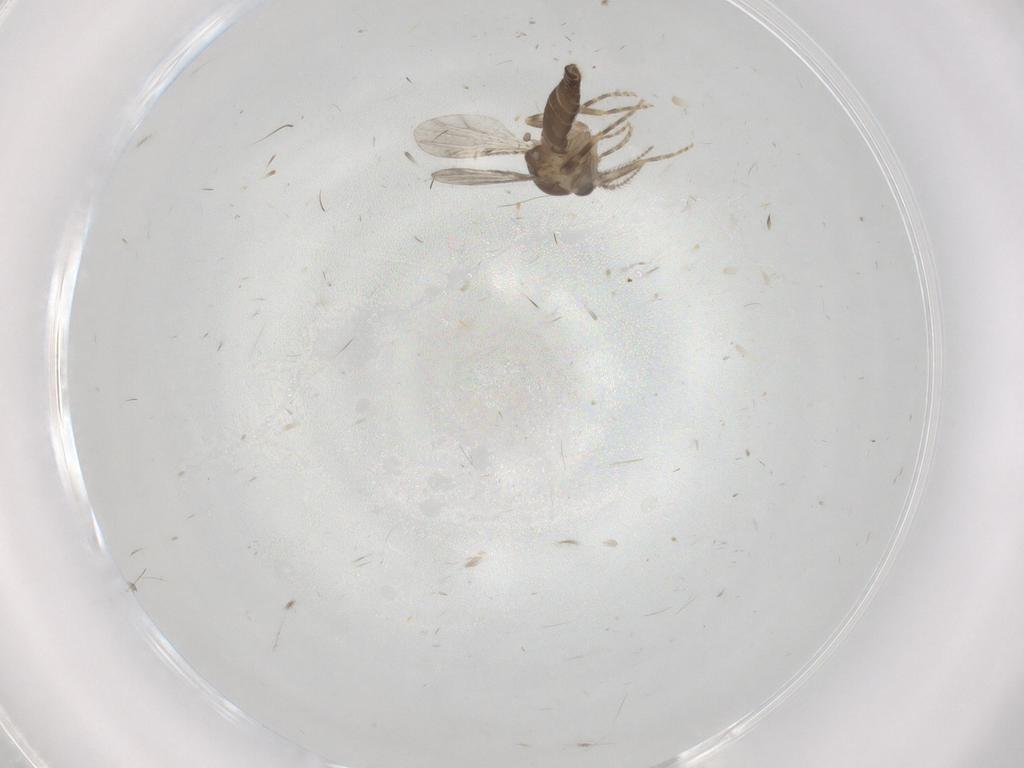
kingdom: Animalia
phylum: Arthropoda
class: Insecta
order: Diptera
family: Ceratopogonidae
